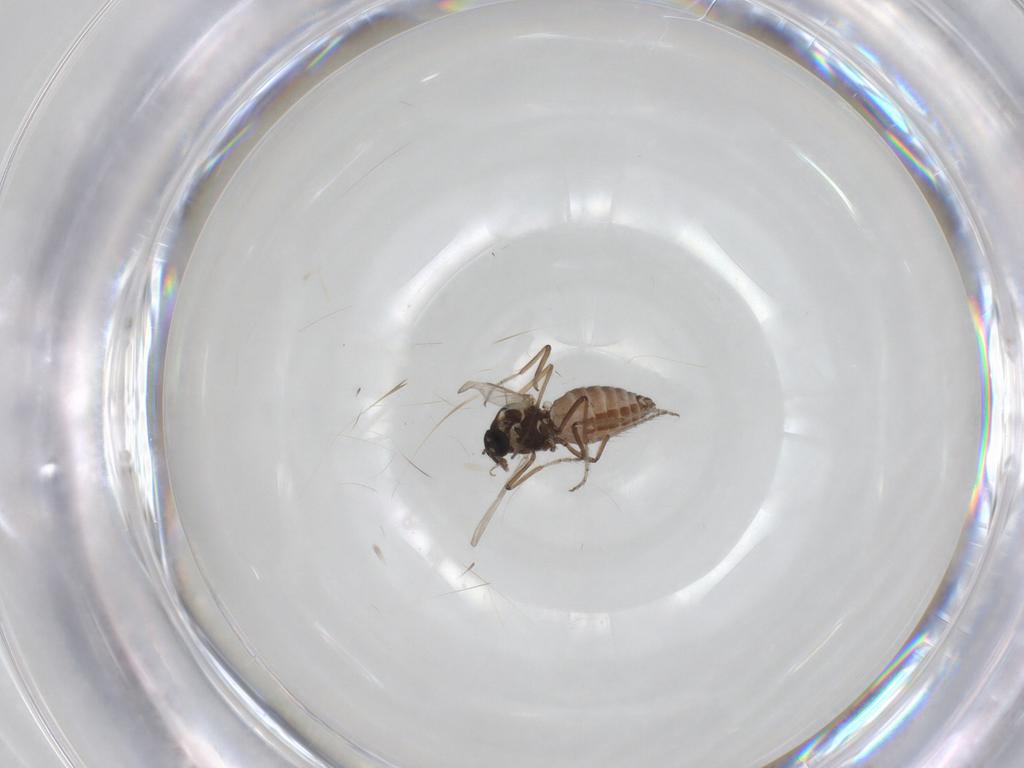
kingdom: Animalia
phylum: Arthropoda
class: Insecta
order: Diptera
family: Ceratopogonidae
